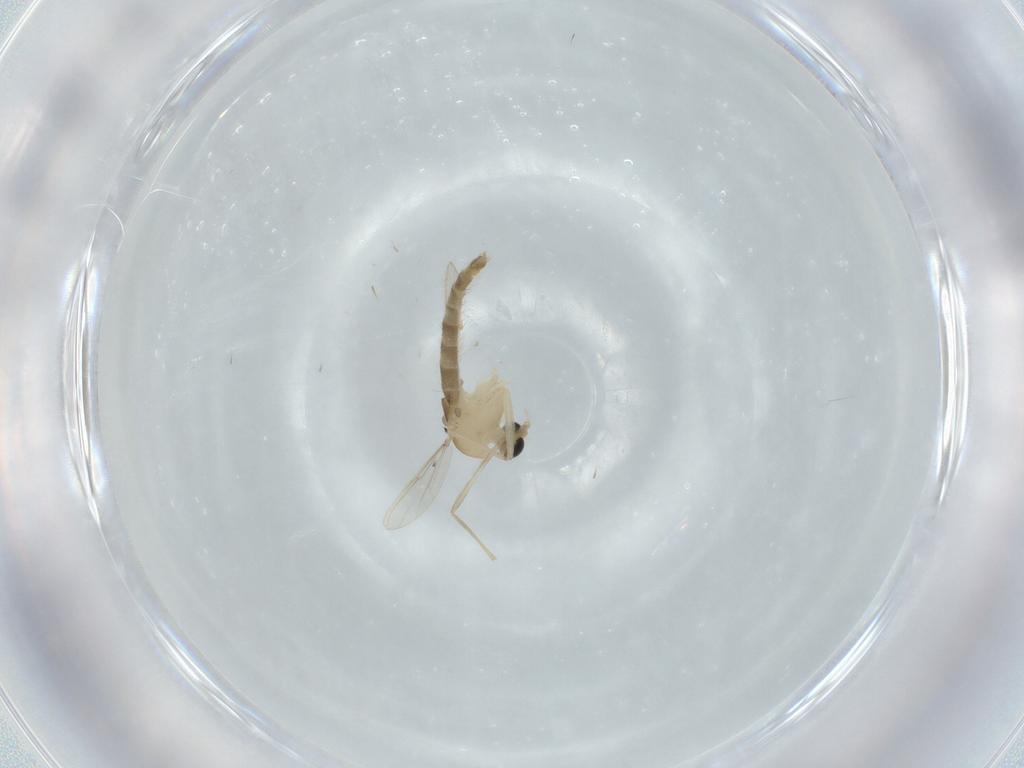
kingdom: Animalia
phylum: Arthropoda
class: Insecta
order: Diptera
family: Chironomidae
